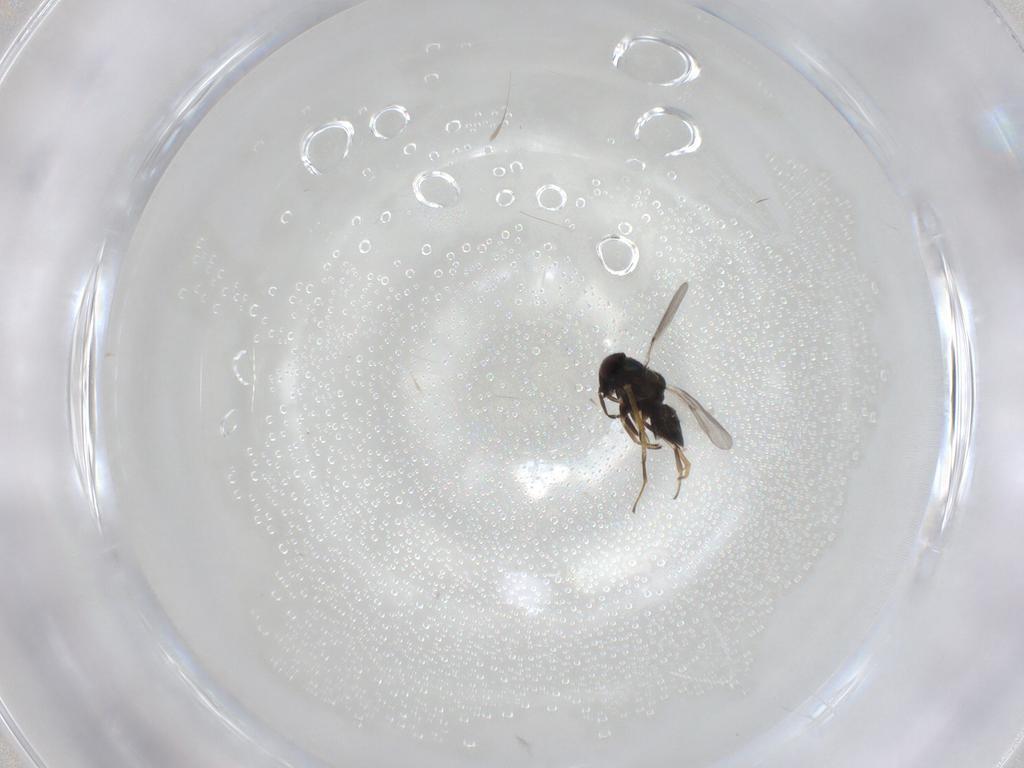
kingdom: Animalia
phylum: Arthropoda
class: Insecta
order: Hymenoptera
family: Encyrtidae
